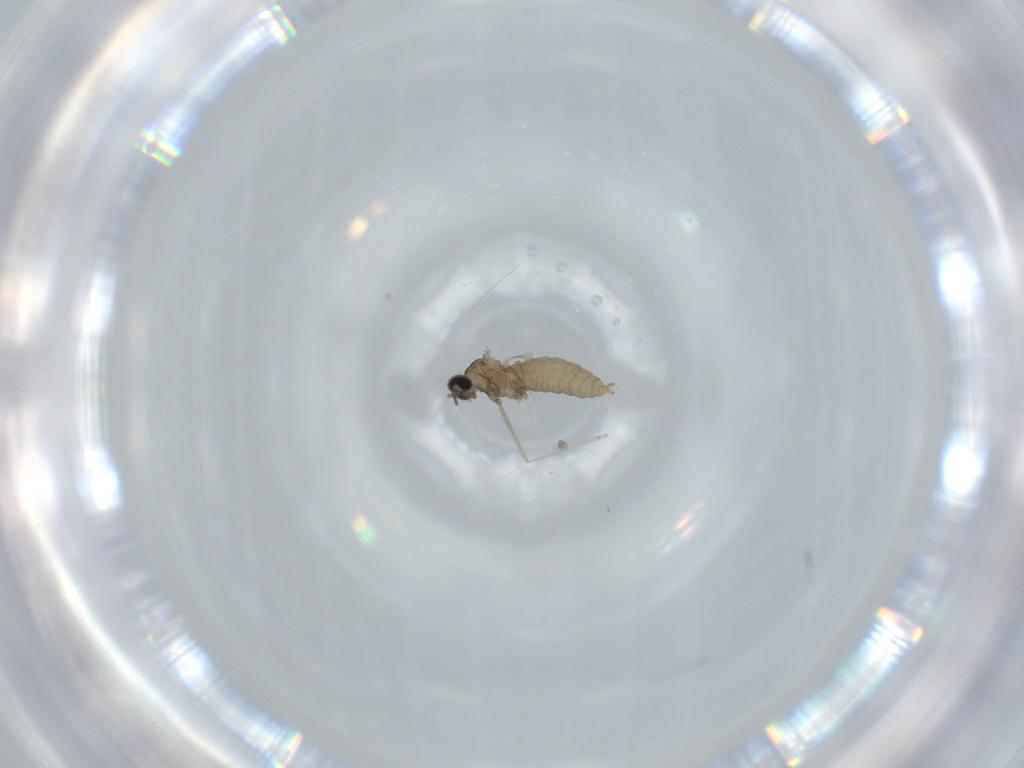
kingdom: Animalia
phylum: Arthropoda
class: Insecta
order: Diptera
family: Cecidomyiidae
